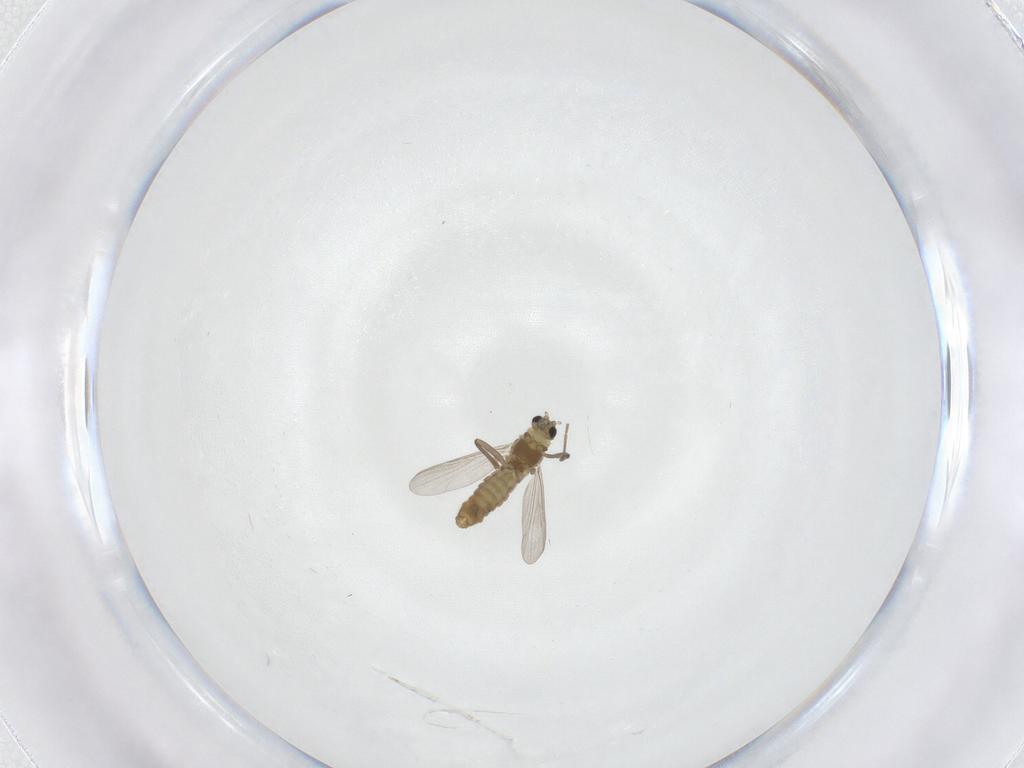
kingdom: Animalia
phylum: Arthropoda
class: Insecta
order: Diptera
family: Chironomidae
